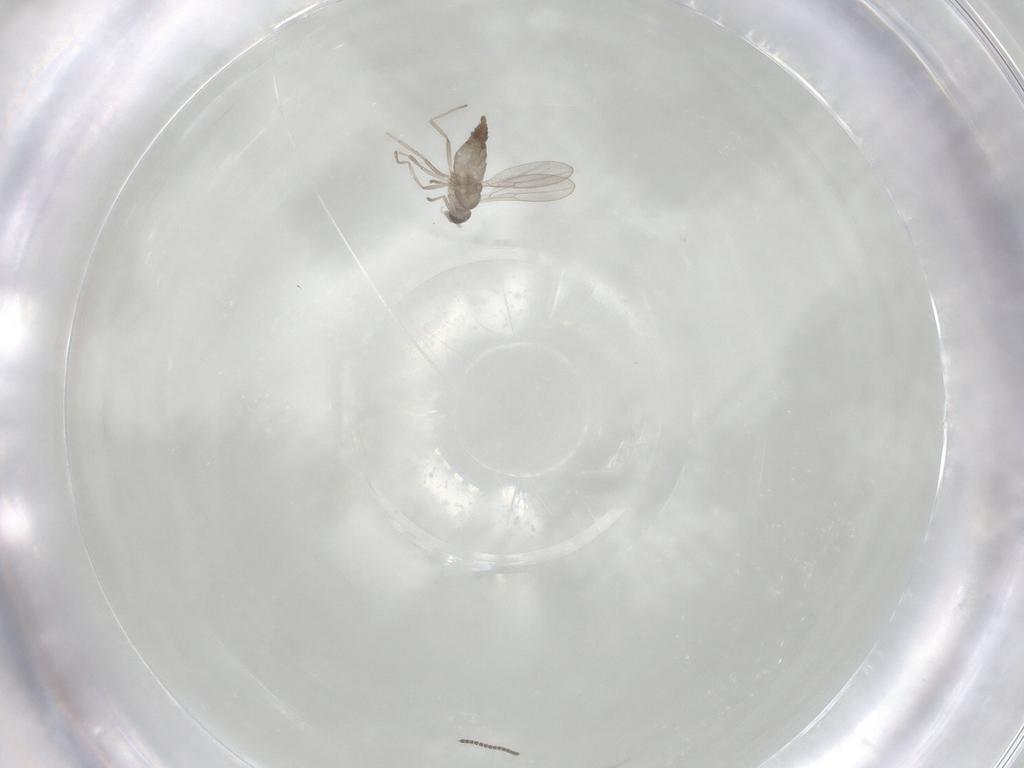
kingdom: Animalia
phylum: Arthropoda
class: Insecta
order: Diptera
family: Cecidomyiidae
